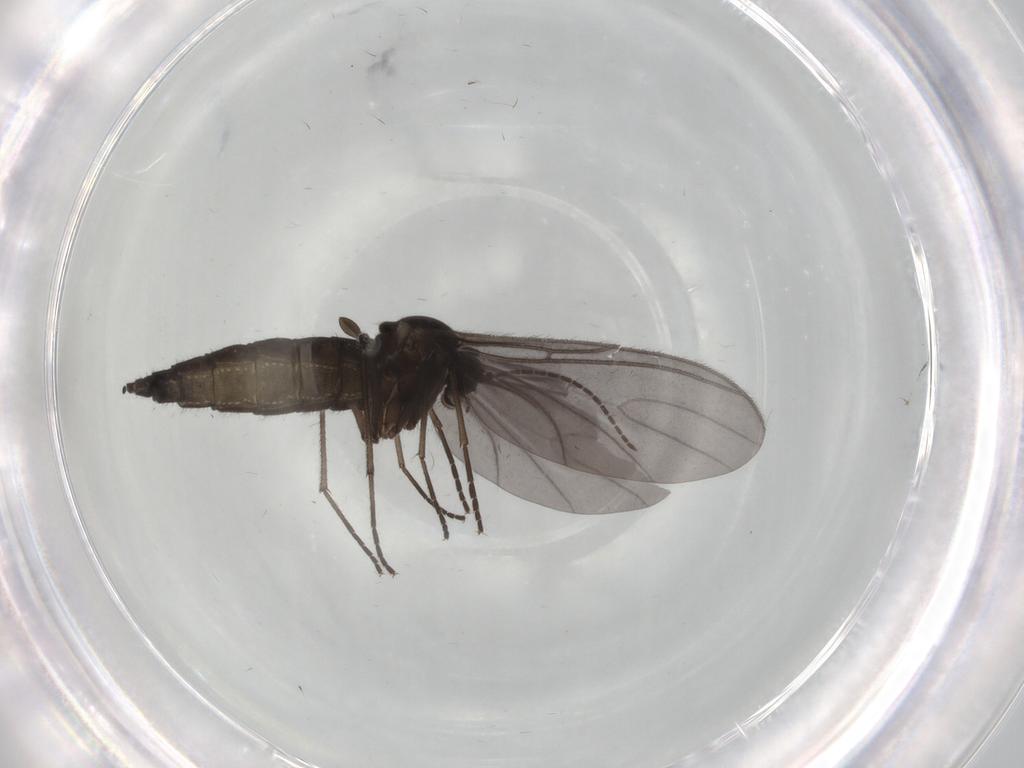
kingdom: Animalia
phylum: Arthropoda
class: Insecta
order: Diptera
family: Sciaridae
